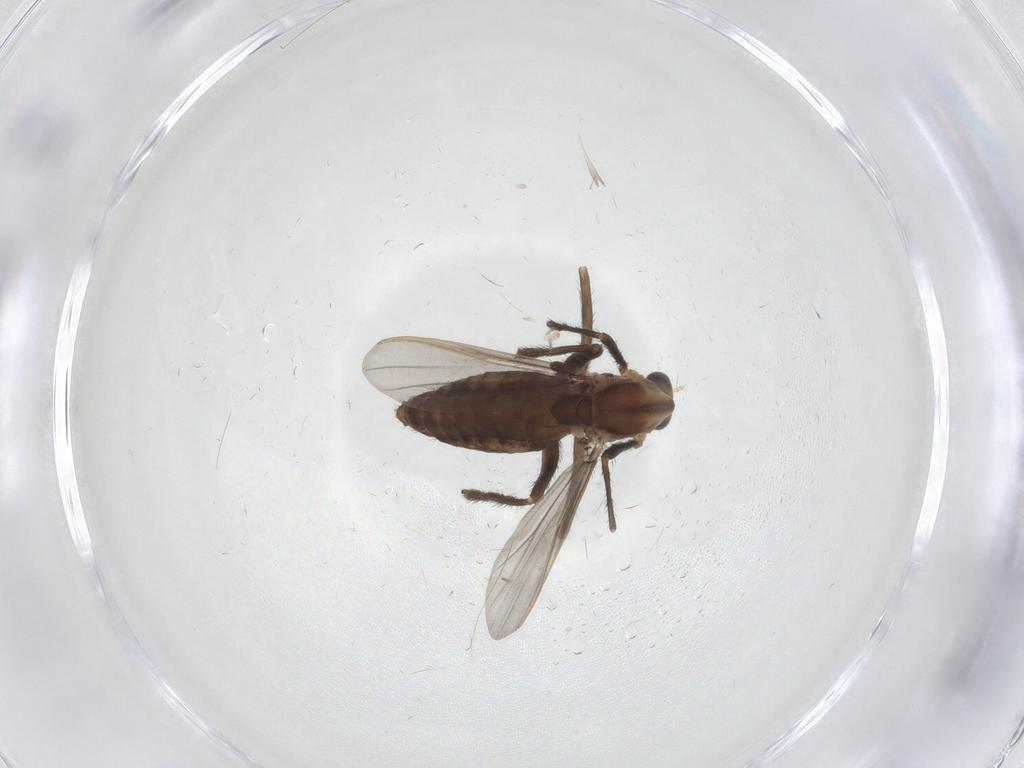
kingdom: Animalia
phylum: Arthropoda
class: Insecta
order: Diptera
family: Chironomidae
